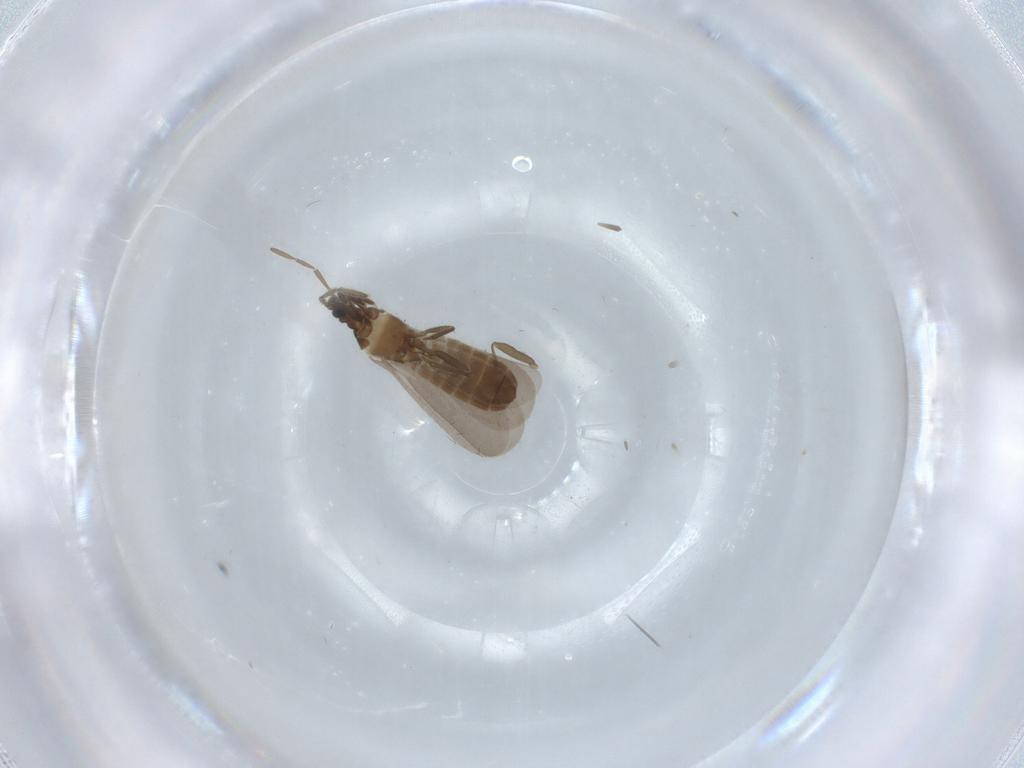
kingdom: Animalia
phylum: Arthropoda
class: Insecta
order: Hemiptera
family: Enicocephalidae
